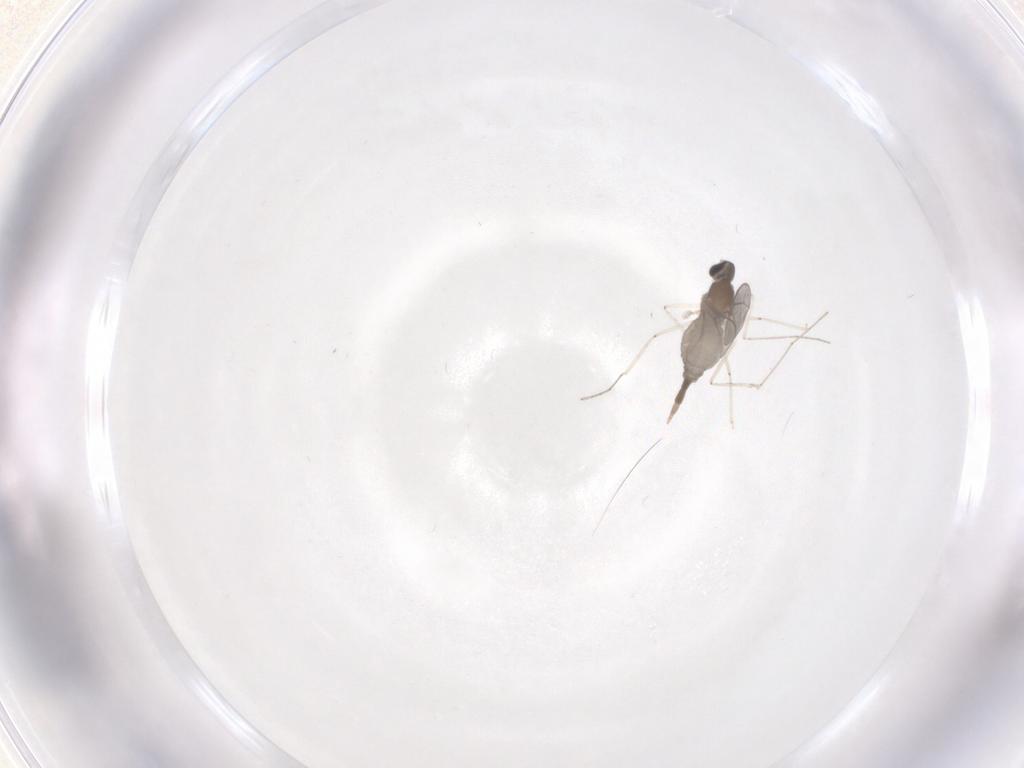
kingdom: Animalia
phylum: Arthropoda
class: Insecta
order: Diptera
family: Cecidomyiidae
